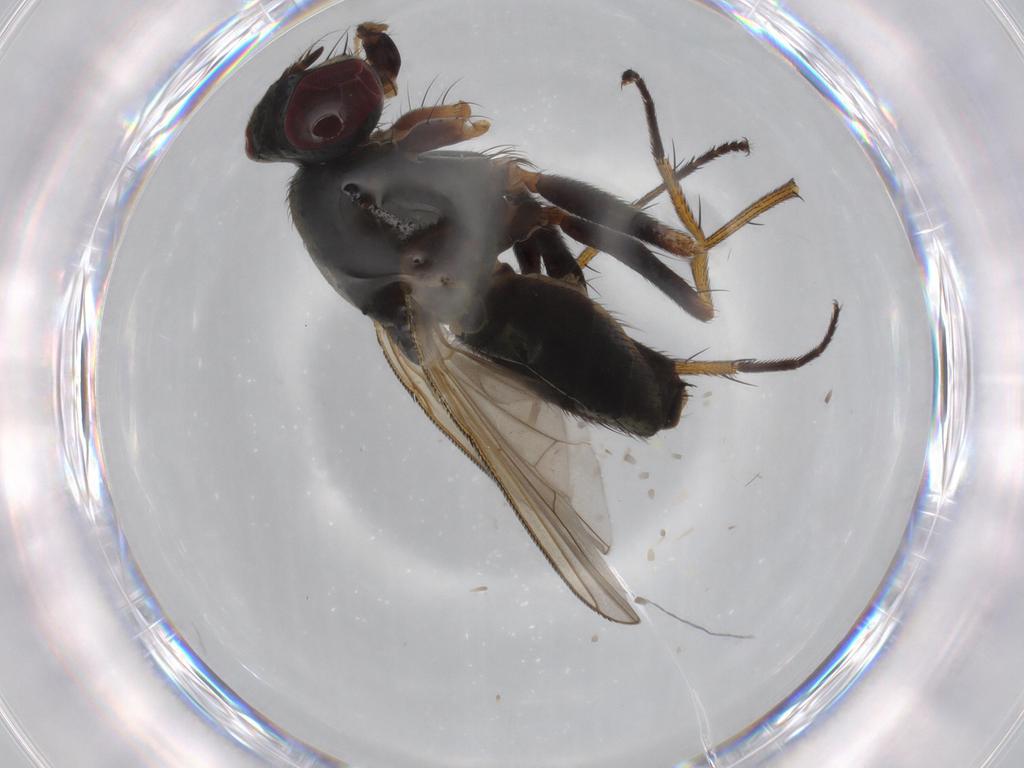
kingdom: Animalia
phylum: Arthropoda
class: Insecta
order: Diptera
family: Muscidae
